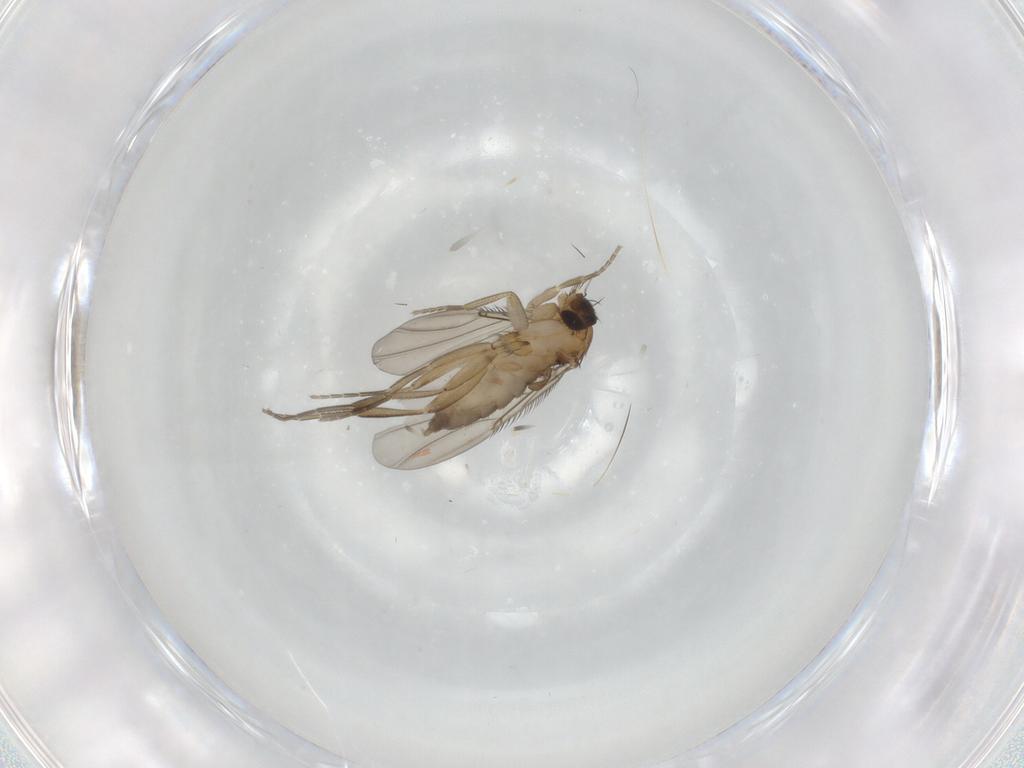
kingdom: Animalia
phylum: Arthropoda
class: Insecta
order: Diptera
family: Phoridae
